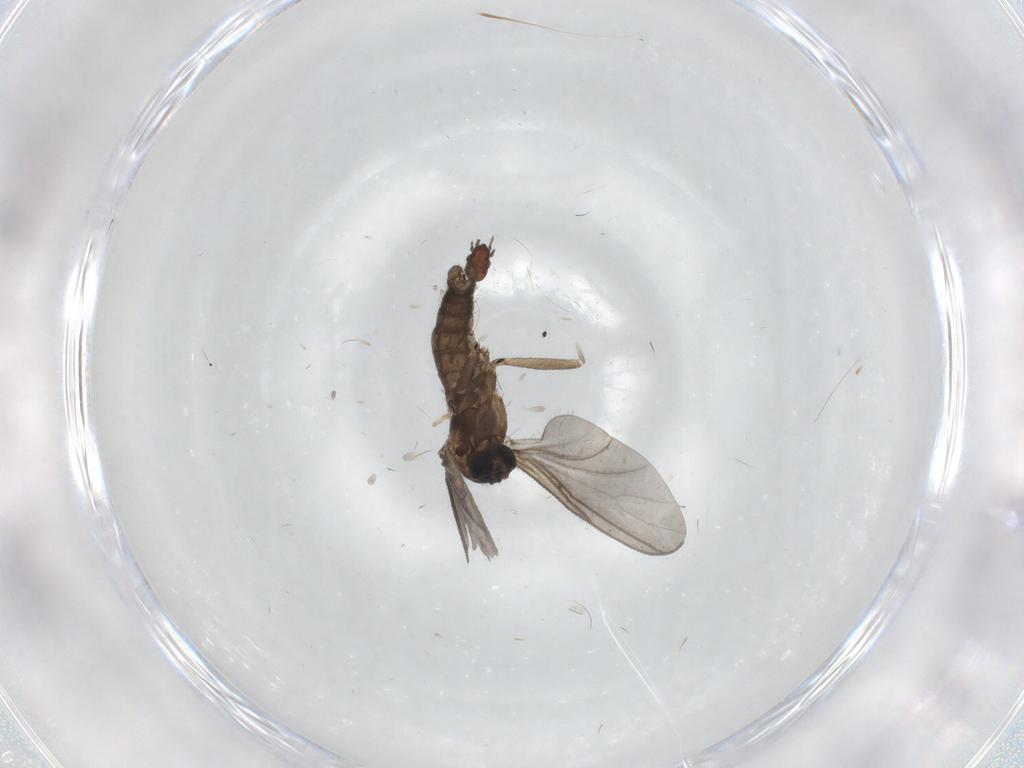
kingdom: Animalia
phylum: Arthropoda
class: Insecta
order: Diptera
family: Sciaridae
